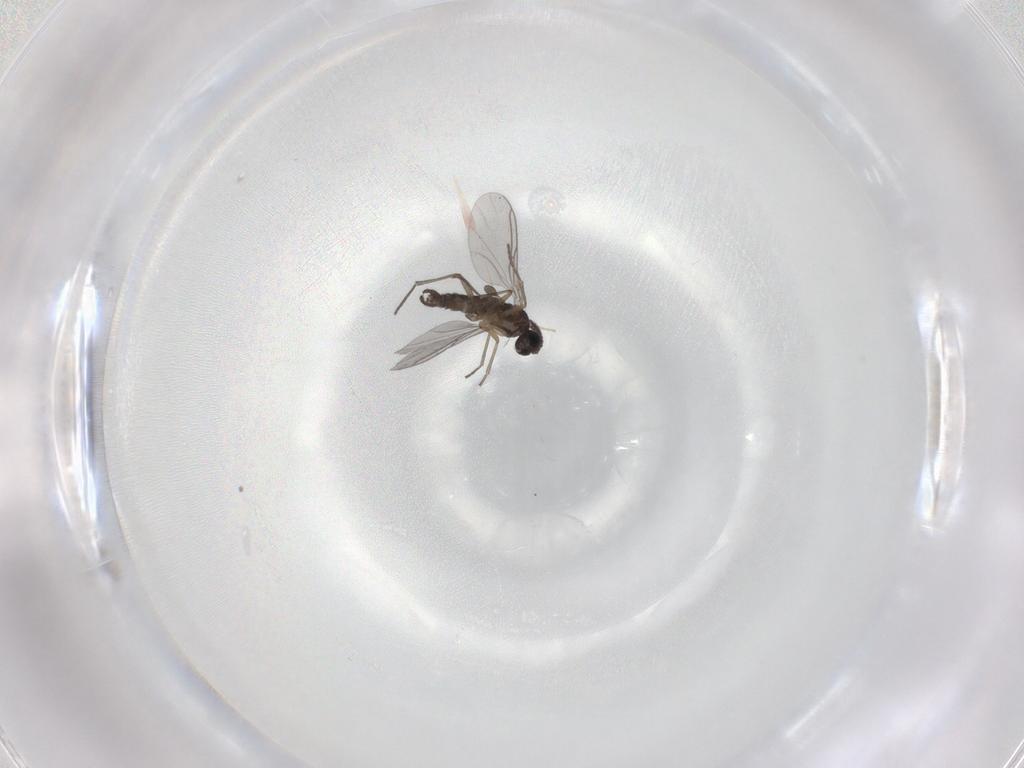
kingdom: Animalia
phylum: Arthropoda
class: Insecta
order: Diptera
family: Sciaridae
